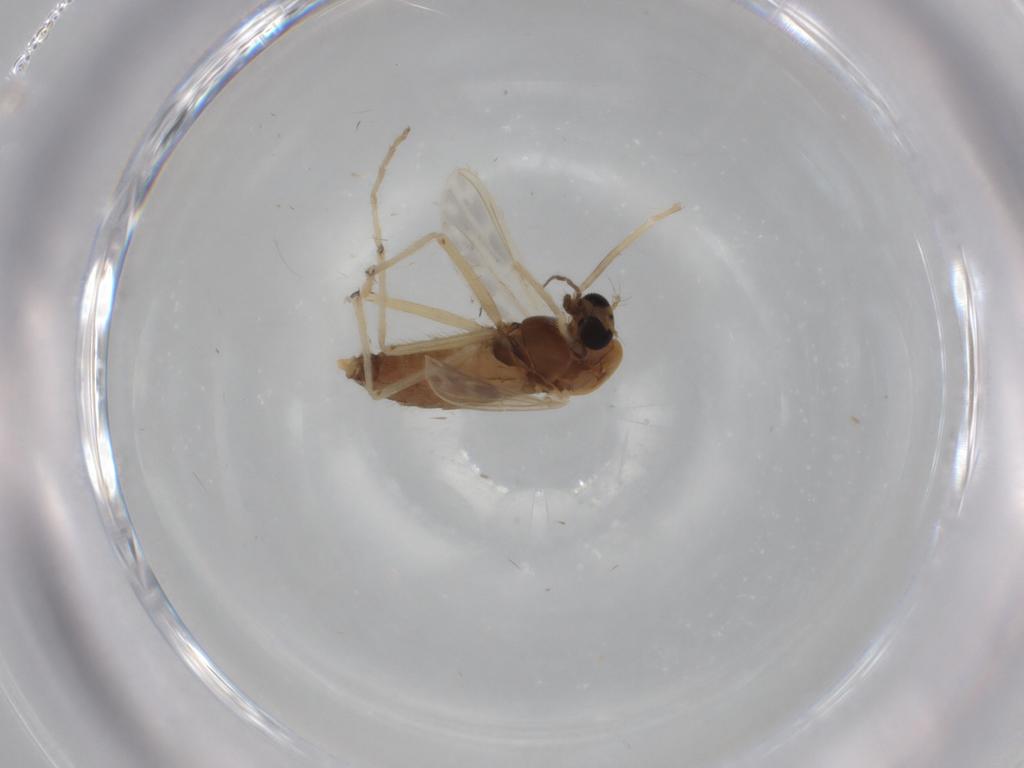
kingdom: Animalia
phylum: Arthropoda
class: Insecta
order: Diptera
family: Chironomidae
